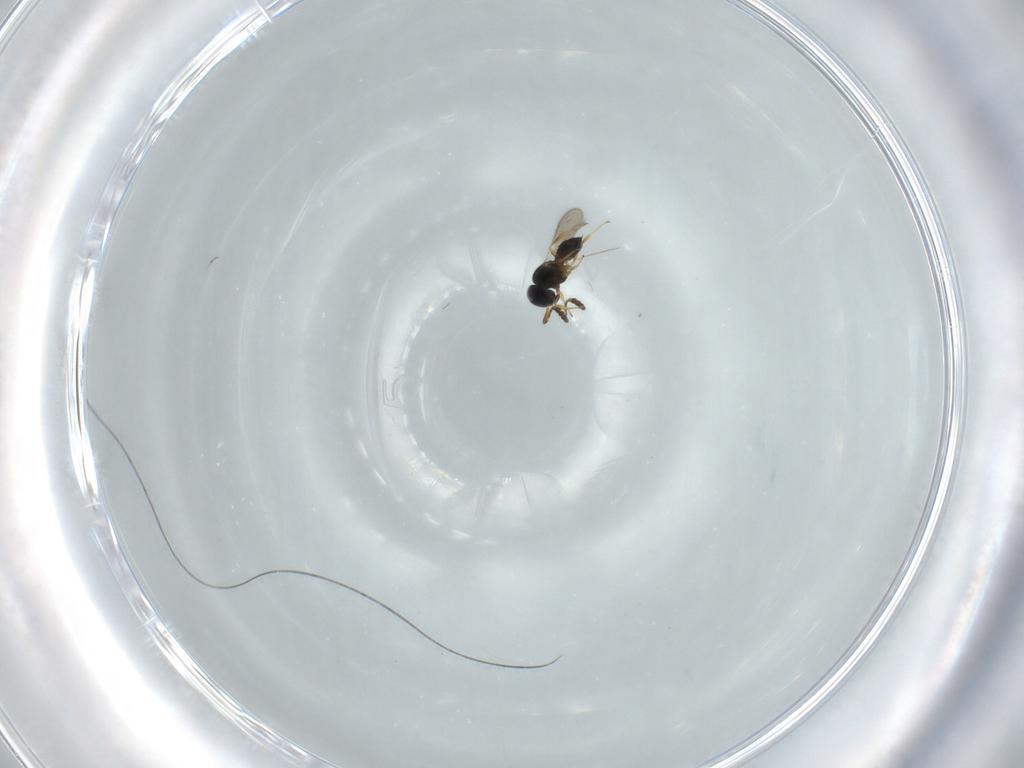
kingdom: Animalia
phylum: Arthropoda
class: Insecta
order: Hymenoptera
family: Scelionidae
